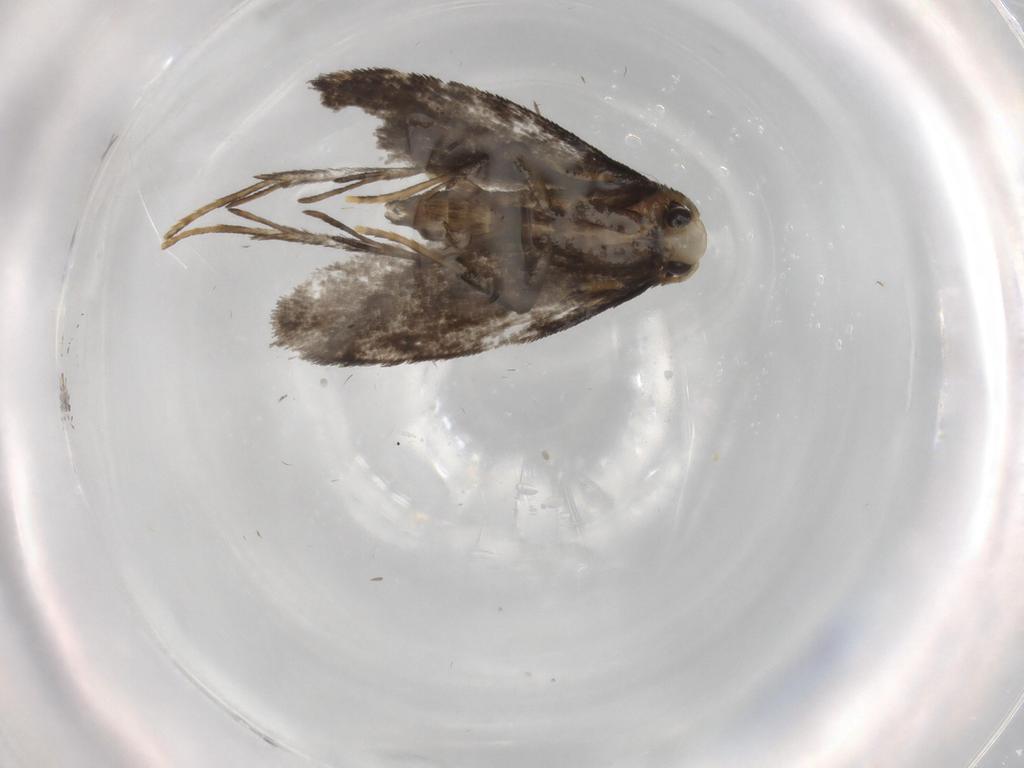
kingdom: Animalia
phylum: Arthropoda
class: Insecta
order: Lepidoptera
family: Psychidae
